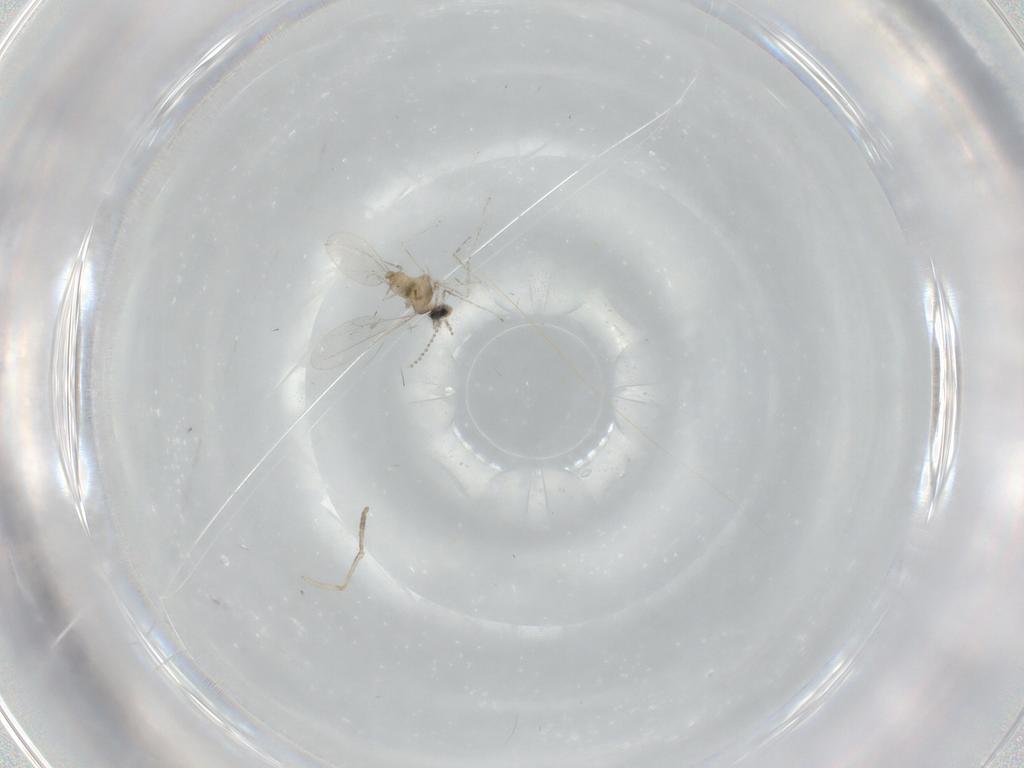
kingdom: Animalia
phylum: Arthropoda
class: Insecta
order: Diptera
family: Cecidomyiidae
